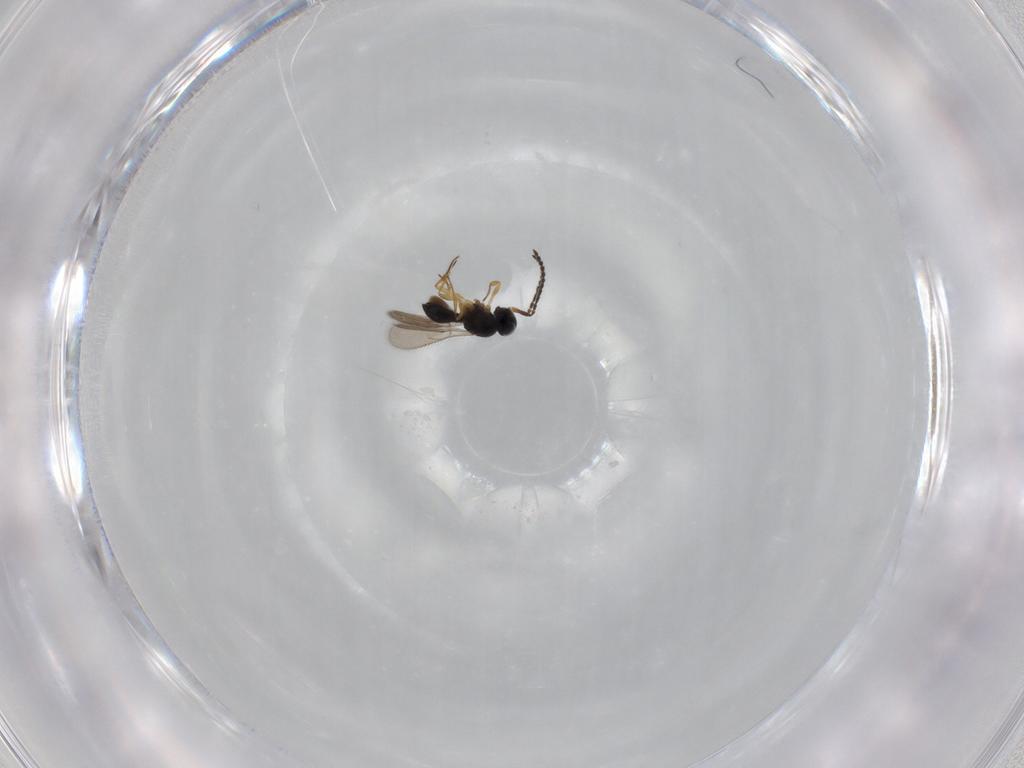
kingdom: Animalia
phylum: Arthropoda
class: Insecta
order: Hymenoptera
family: Scelionidae
